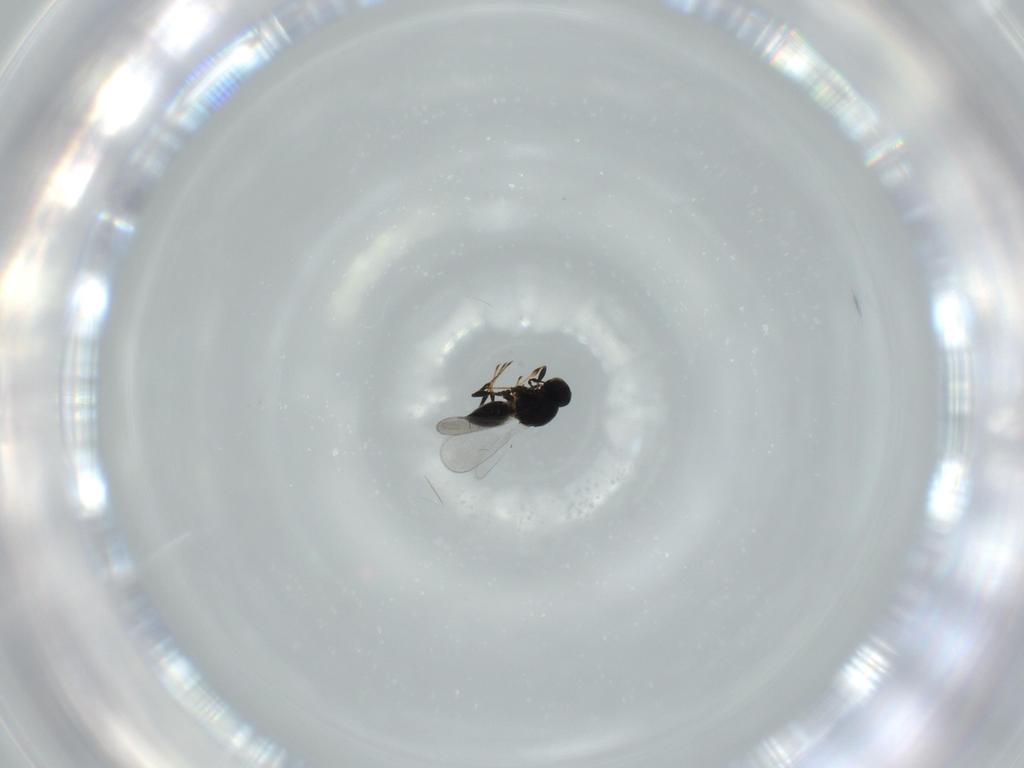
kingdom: Animalia
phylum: Arthropoda
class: Insecta
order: Hymenoptera
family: Platygastridae
